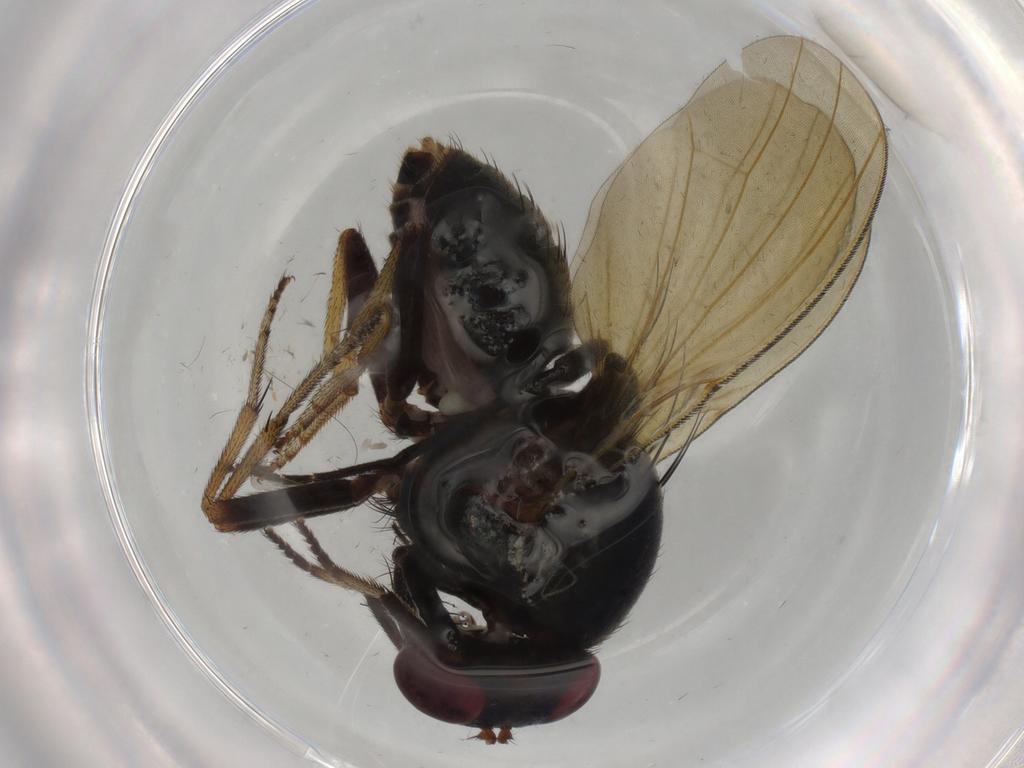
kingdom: Animalia
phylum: Arthropoda
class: Insecta
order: Diptera
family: Sciaridae
